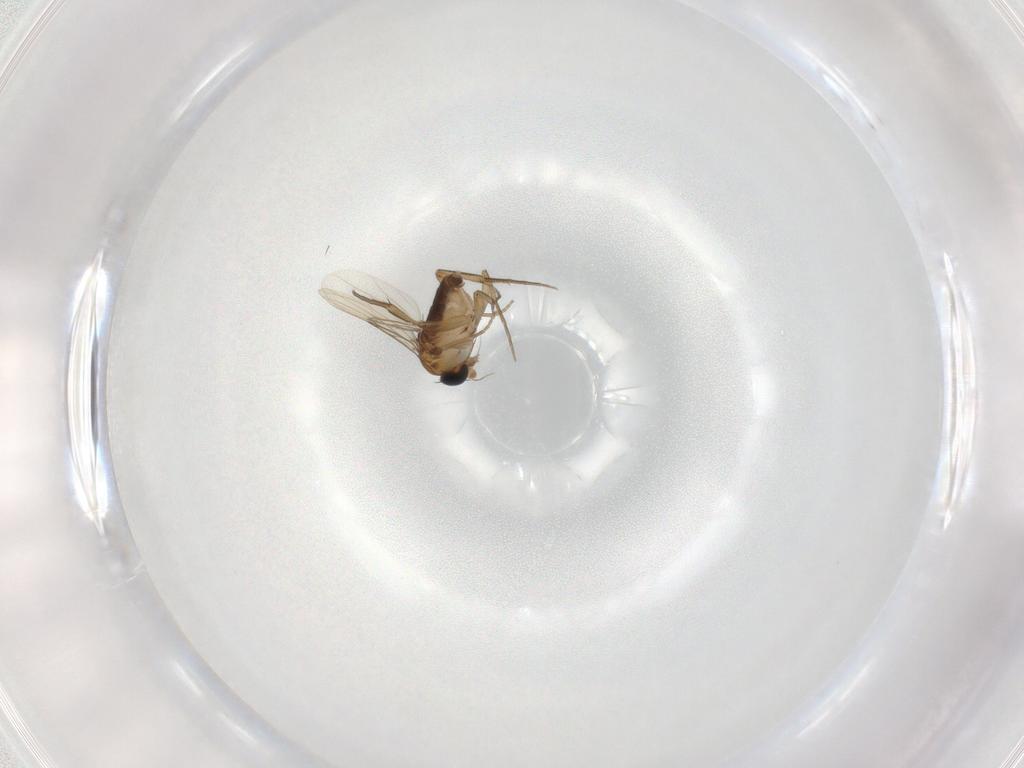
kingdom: Animalia
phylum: Arthropoda
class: Insecta
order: Diptera
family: Phoridae
